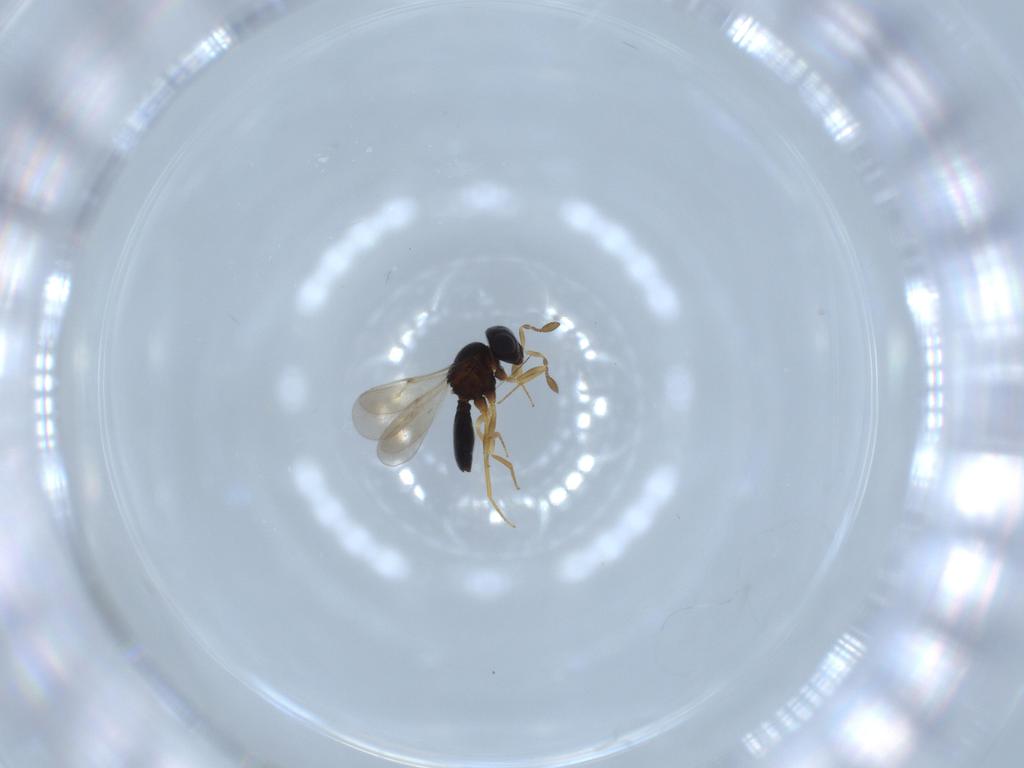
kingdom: Animalia
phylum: Arthropoda
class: Insecta
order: Hymenoptera
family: Scelionidae
